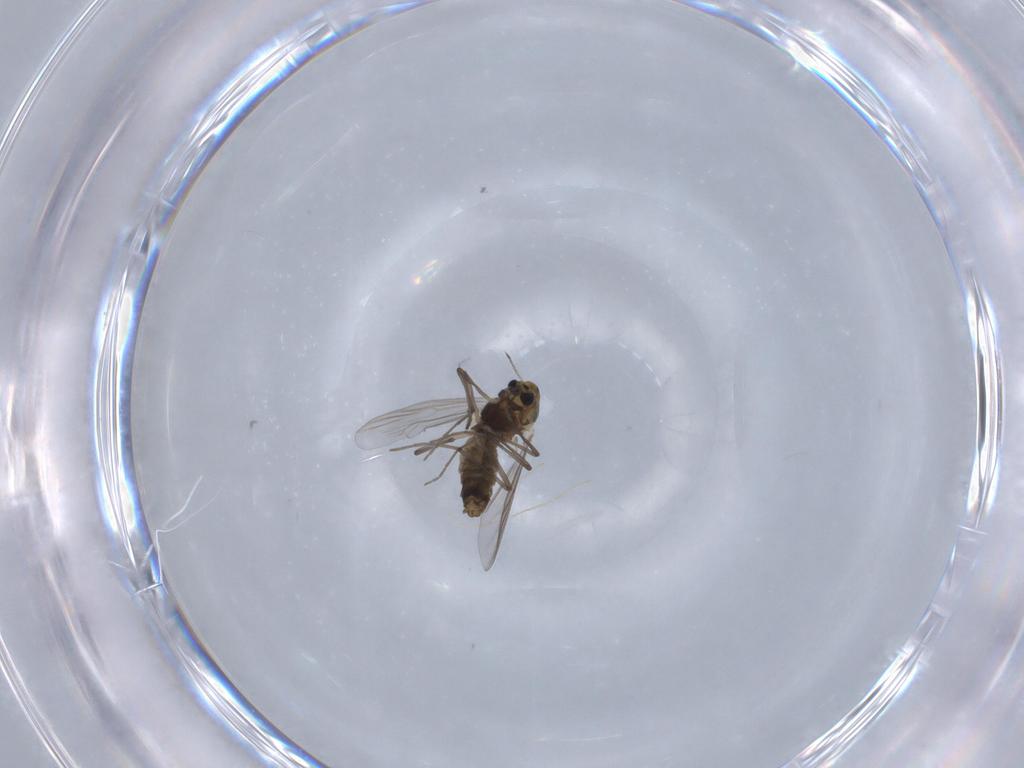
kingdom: Animalia
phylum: Arthropoda
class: Insecta
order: Diptera
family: Chironomidae
